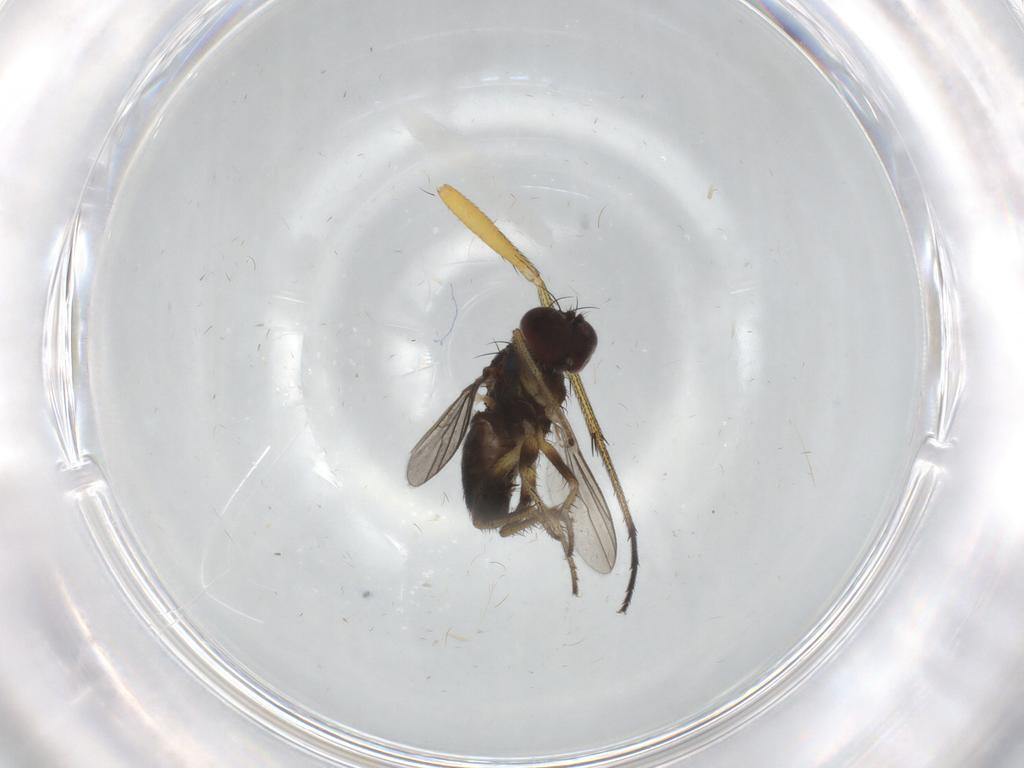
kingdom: Animalia
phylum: Arthropoda
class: Insecta
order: Diptera
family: Dolichopodidae
